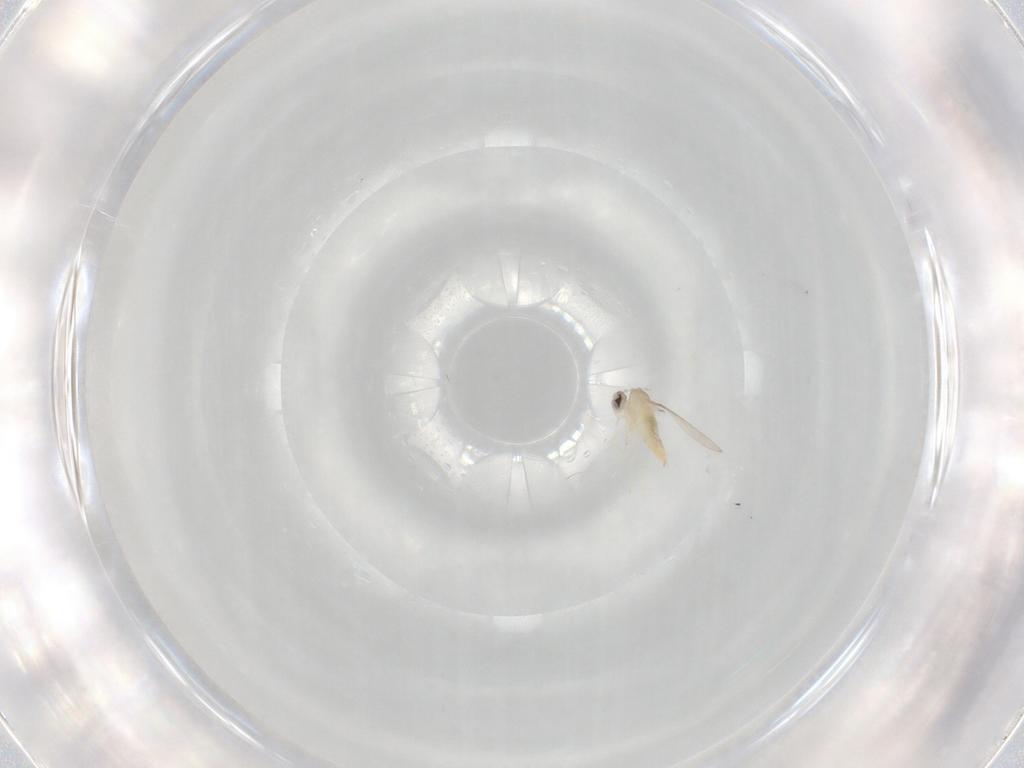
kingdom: Animalia
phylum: Arthropoda
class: Insecta
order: Diptera
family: Cecidomyiidae
